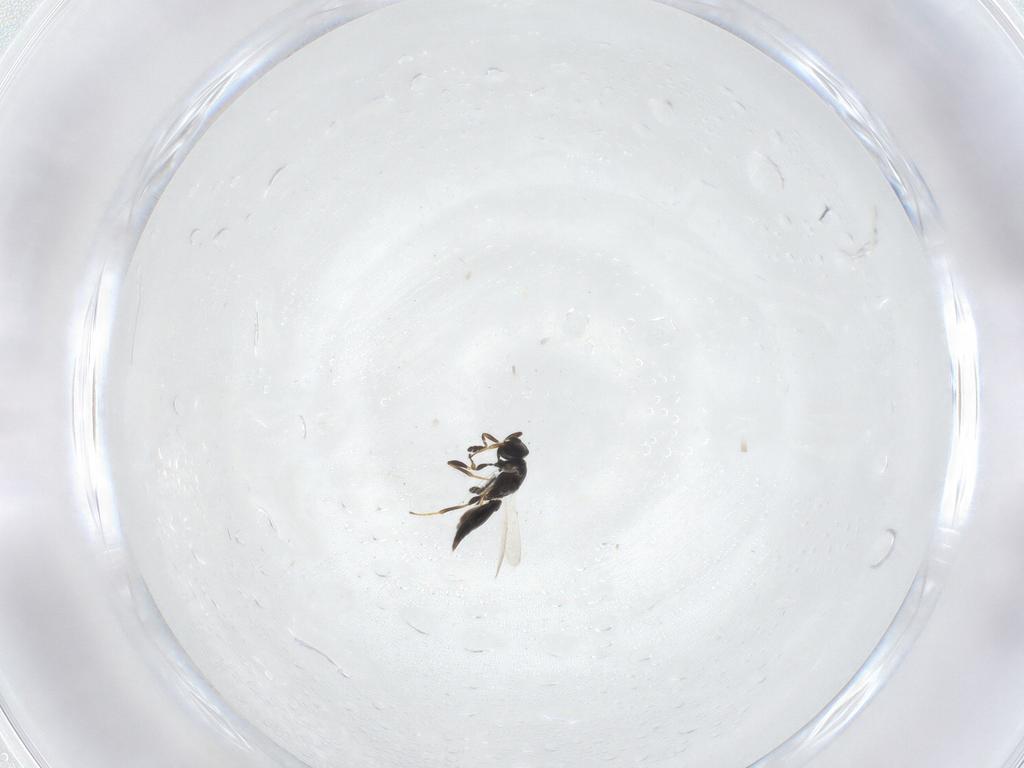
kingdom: Animalia
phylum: Arthropoda
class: Insecta
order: Hymenoptera
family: Platygastridae
